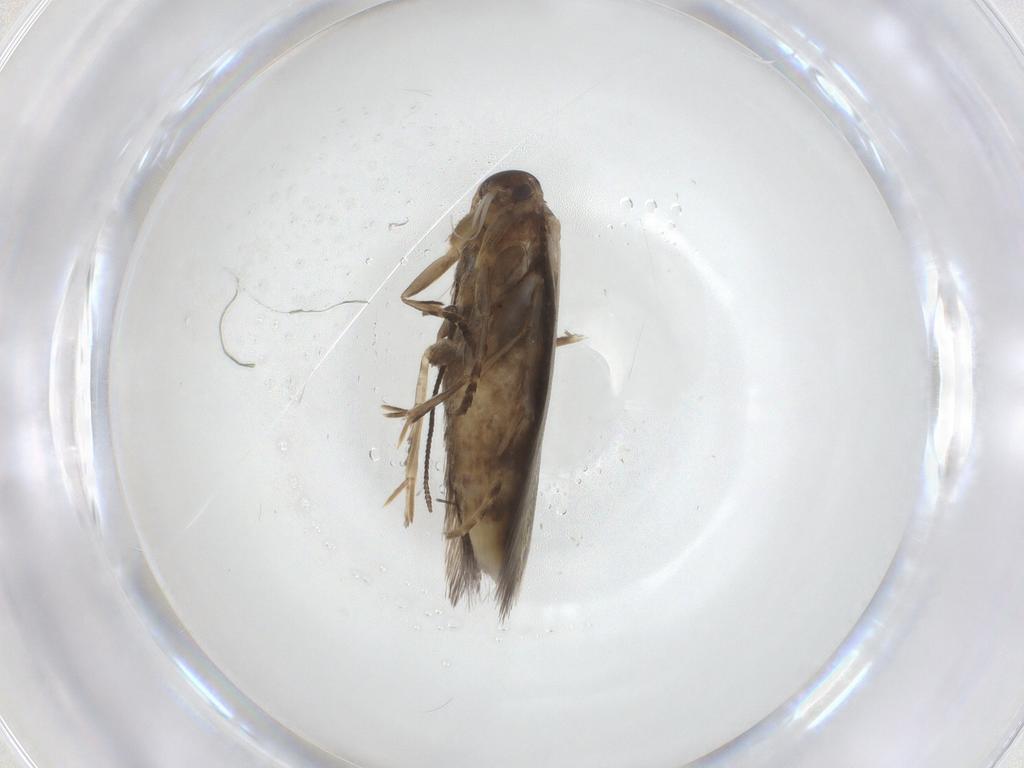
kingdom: Animalia
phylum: Arthropoda
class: Insecta
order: Lepidoptera
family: Elachistidae
